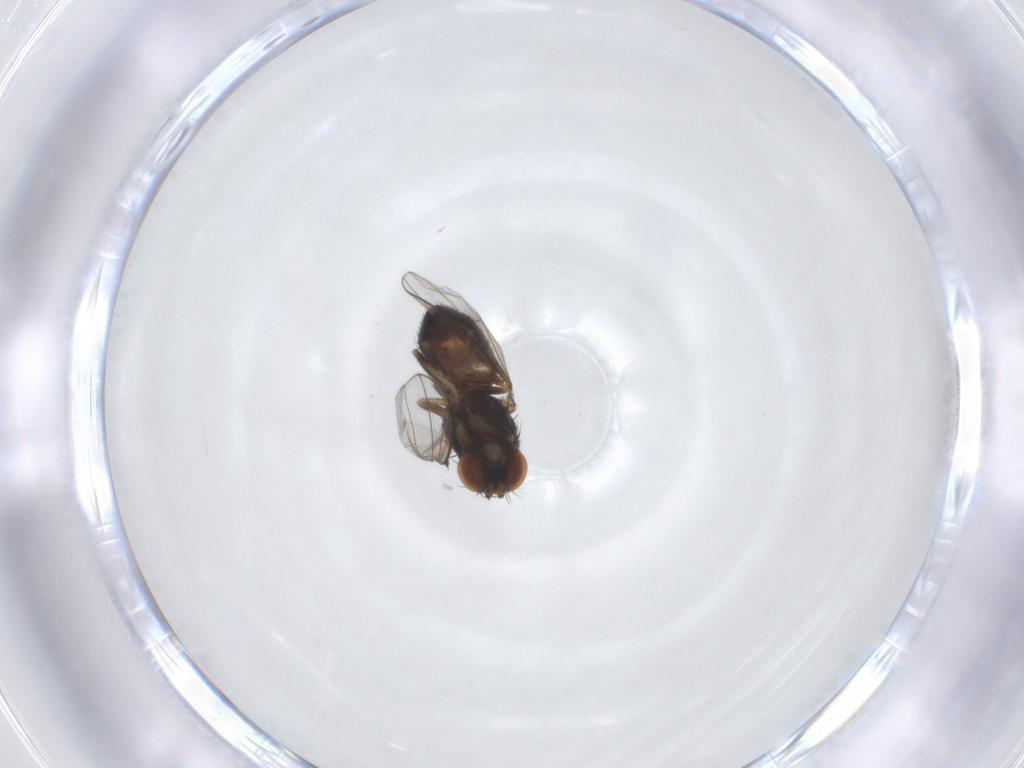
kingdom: Animalia
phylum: Arthropoda
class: Insecta
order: Diptera
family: Ephydridae
